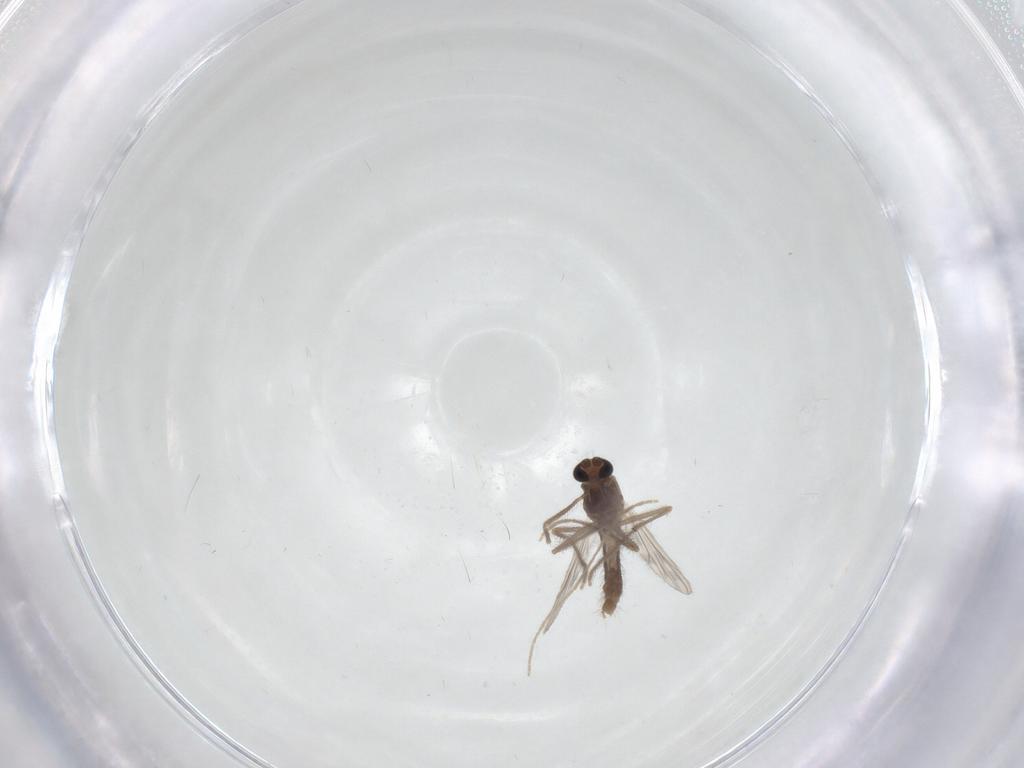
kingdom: Animalia
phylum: Arthropoda
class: Insecta
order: Diptera
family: Chironomidae
